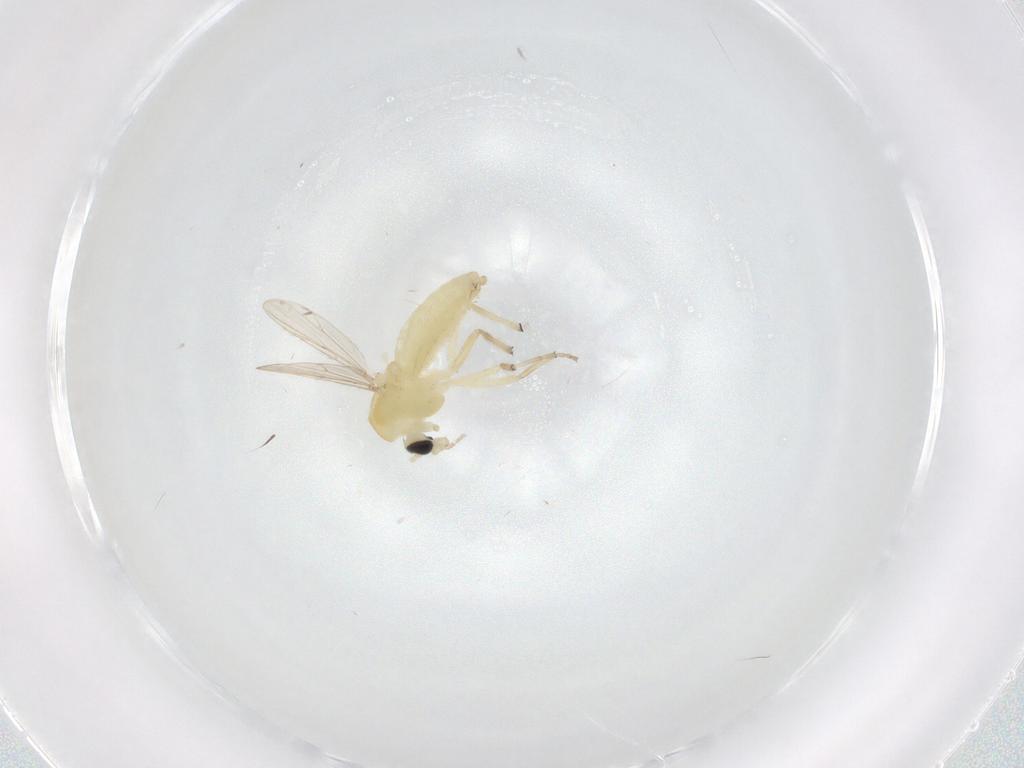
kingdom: Animalia
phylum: Arthropoda
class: Insecta
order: Diptera
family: Chironomidae
